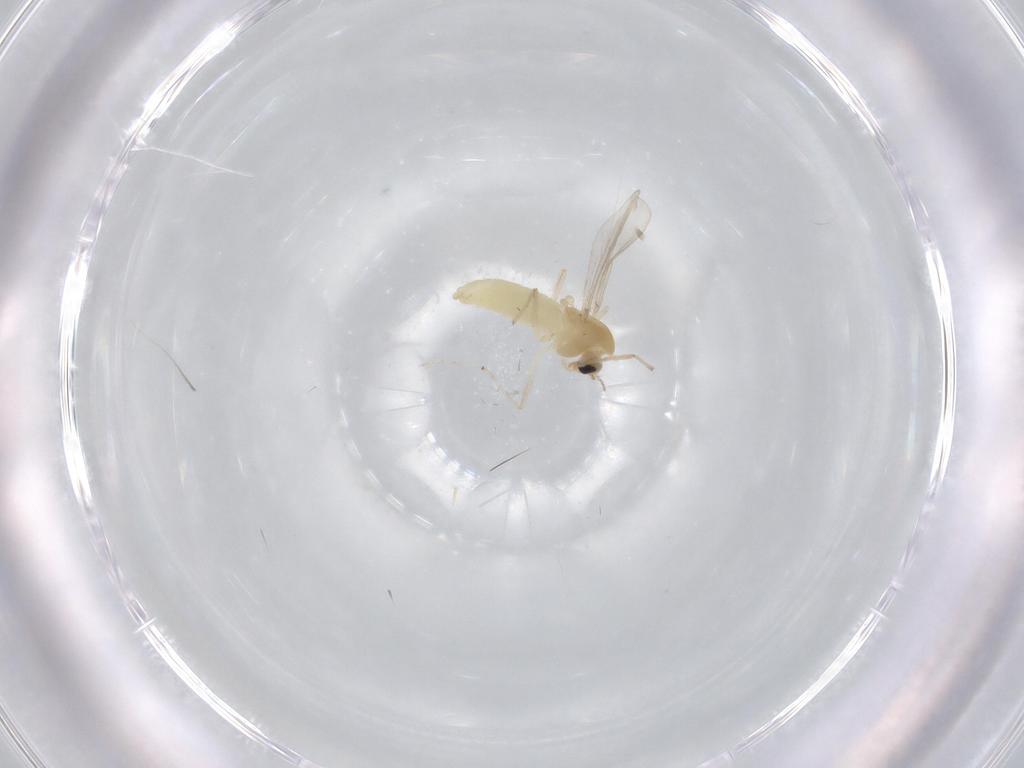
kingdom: Animalia
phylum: Arthropoda
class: Insecta
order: Diptera
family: Chironomidae
